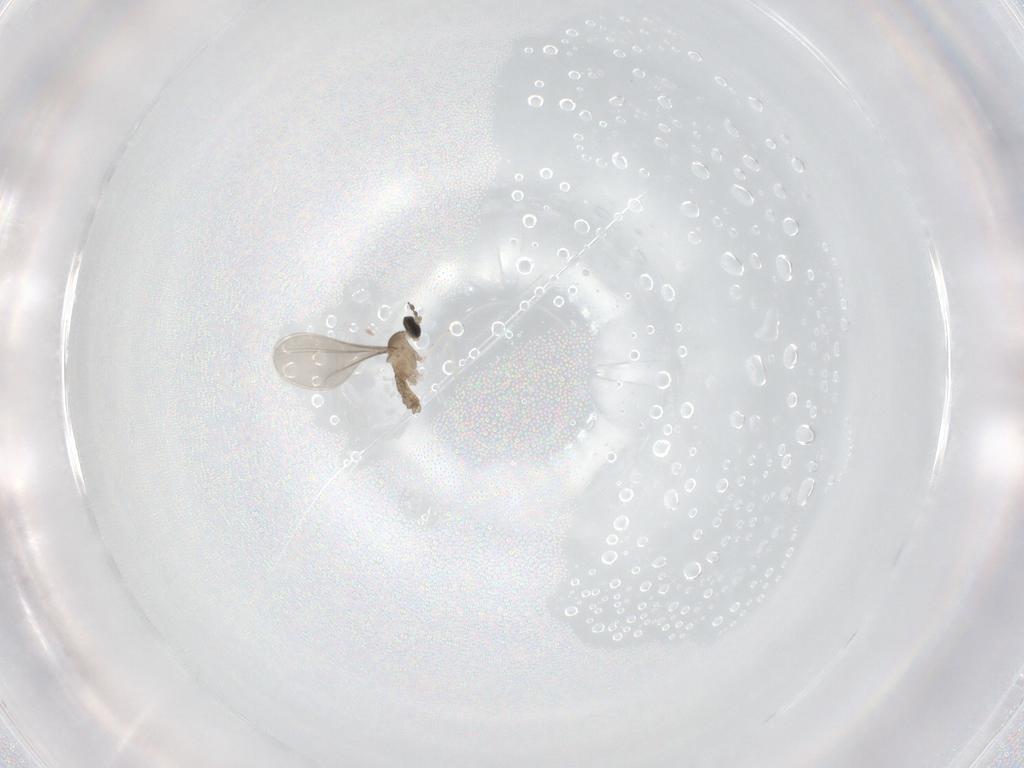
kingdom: Animalia
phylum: Arthropoda
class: Insecta
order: Diptera
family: Cecidomyiidae
